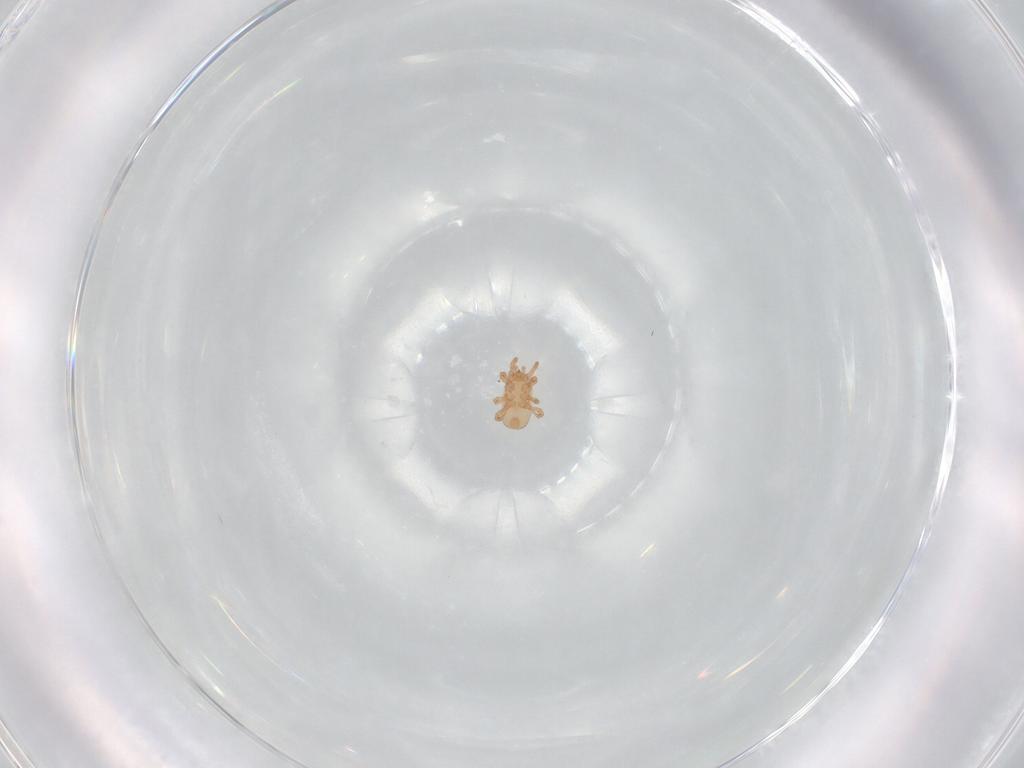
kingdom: Animalia
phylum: Arthropoda
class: Arachnida
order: Mesostigmata
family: Ascidae
